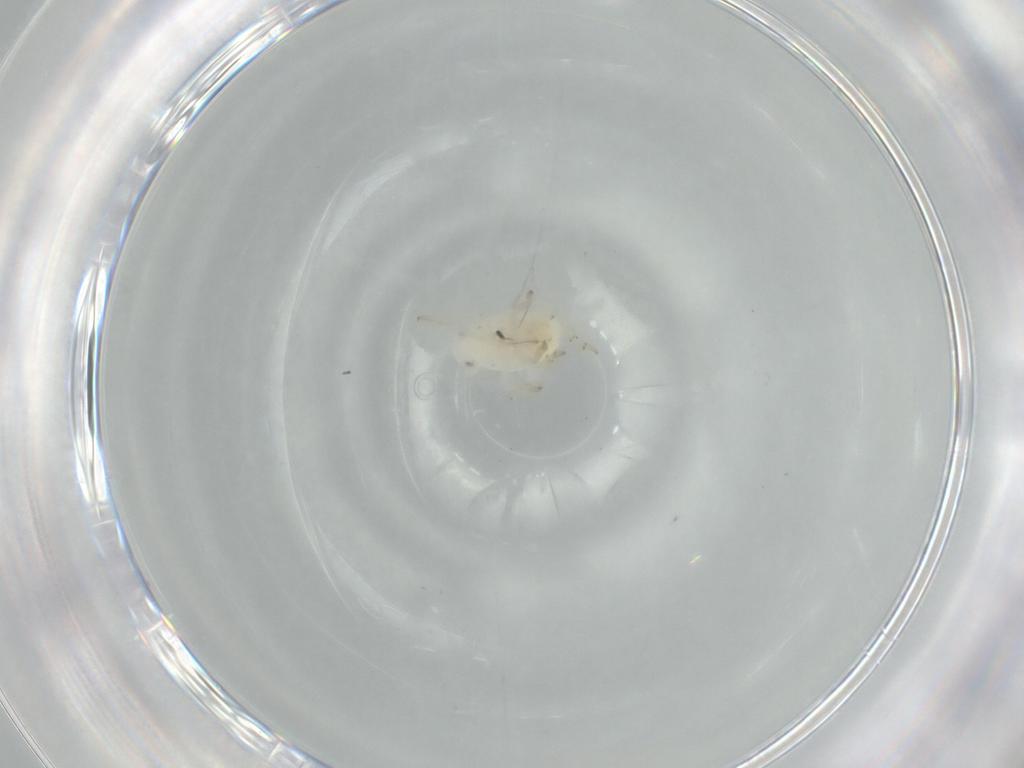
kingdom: Animalia
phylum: Arthropoda
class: Insecta
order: Hemiptera
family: Flatidae
